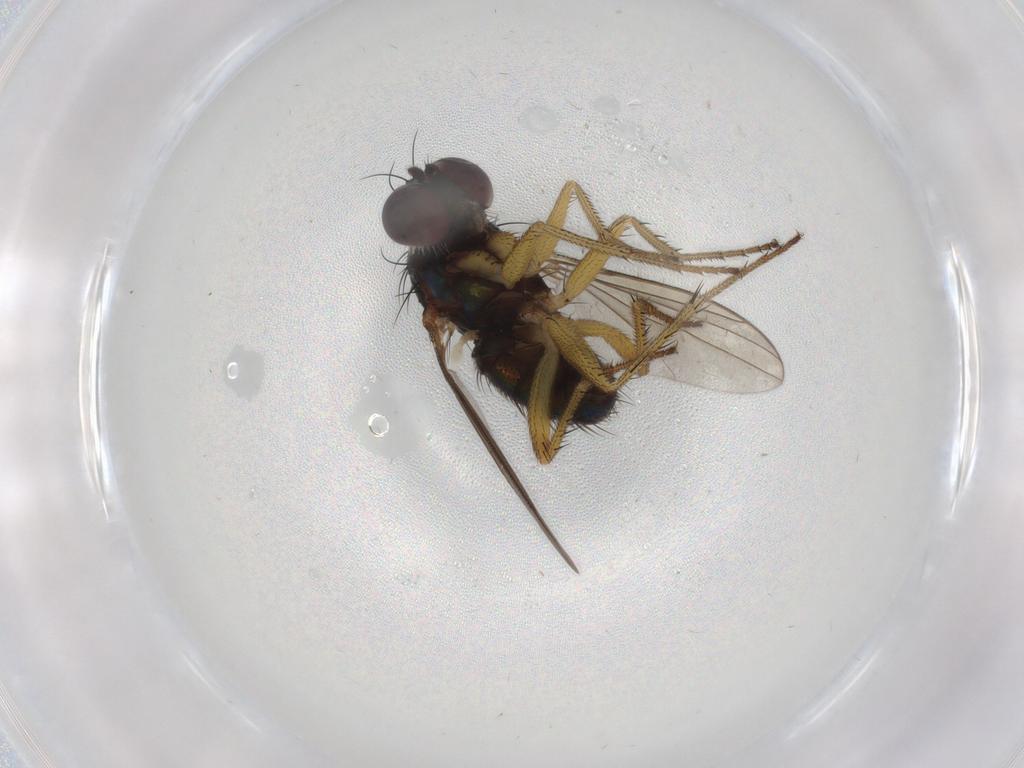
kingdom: Animalia
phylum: Arthropoda
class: Insecta
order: Diptera
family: Dolichopodidae
